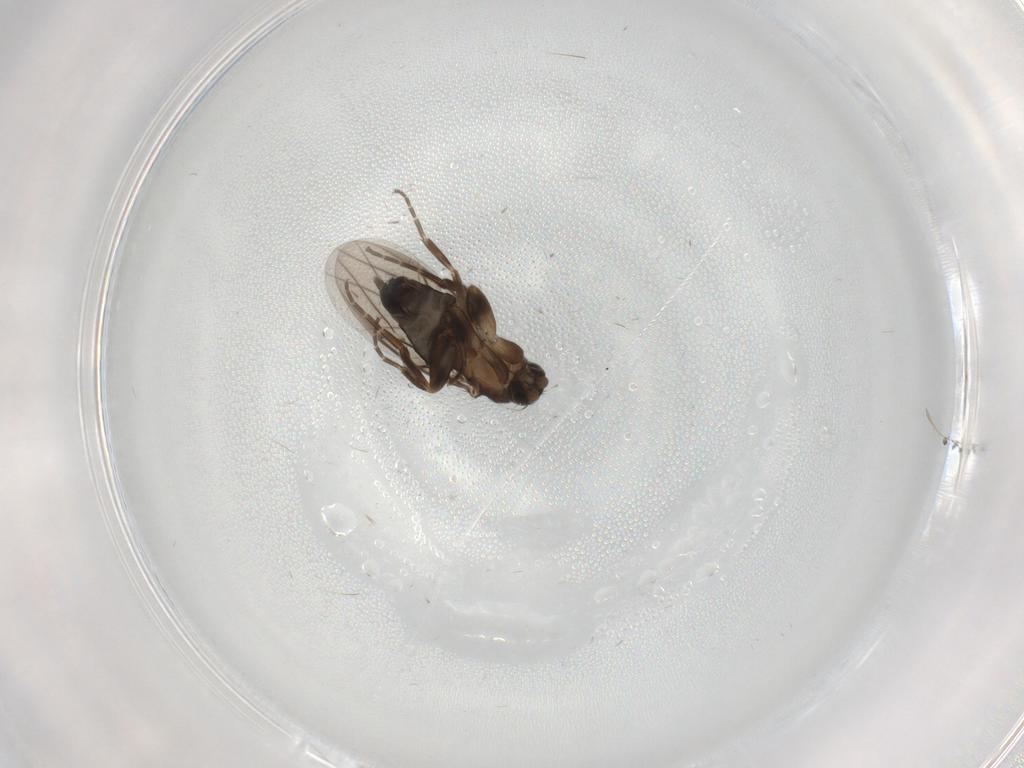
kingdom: Animalia
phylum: Arthropoda
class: Insecta
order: Diptera
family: Phoridae
